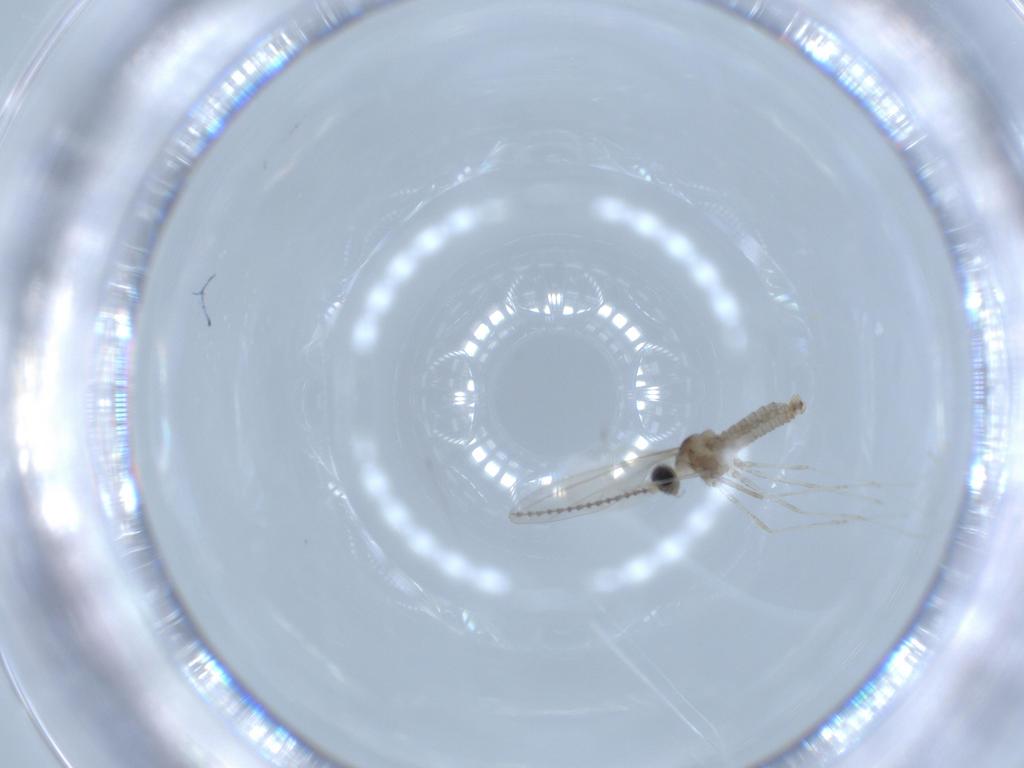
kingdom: Animalia
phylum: Arthropoda
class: Insecta
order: Diptera
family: Cecidomyiidae
